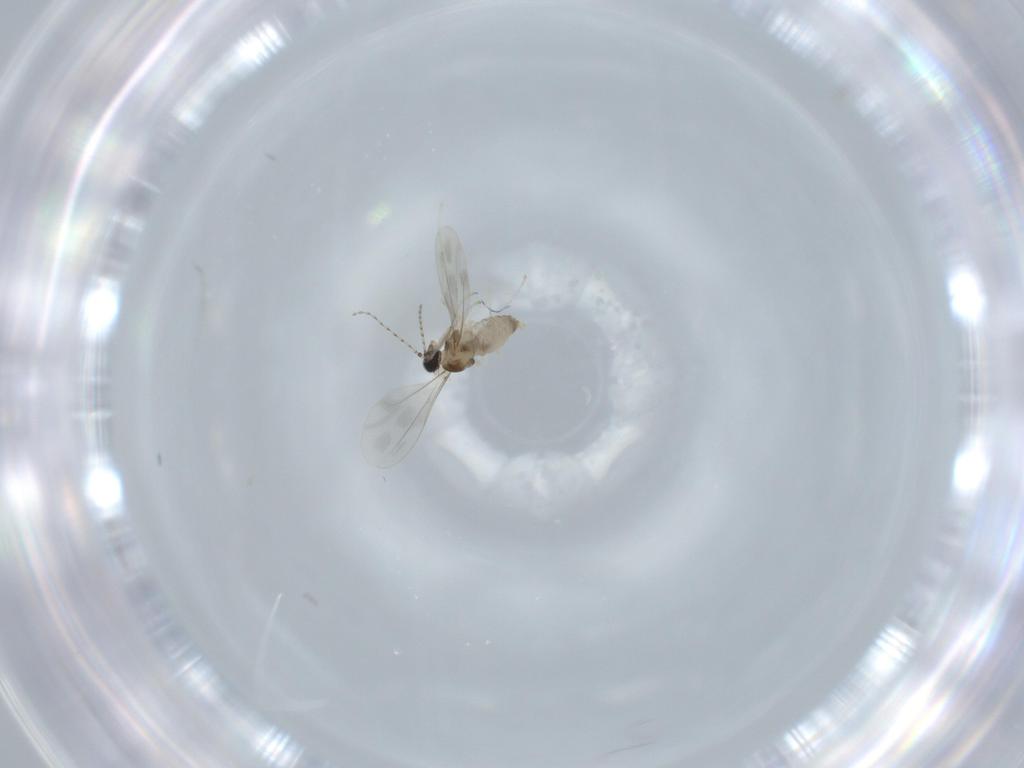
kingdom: Animalia
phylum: Arthropoda
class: Insecta
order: Diptera
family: Cecidomyiidae
